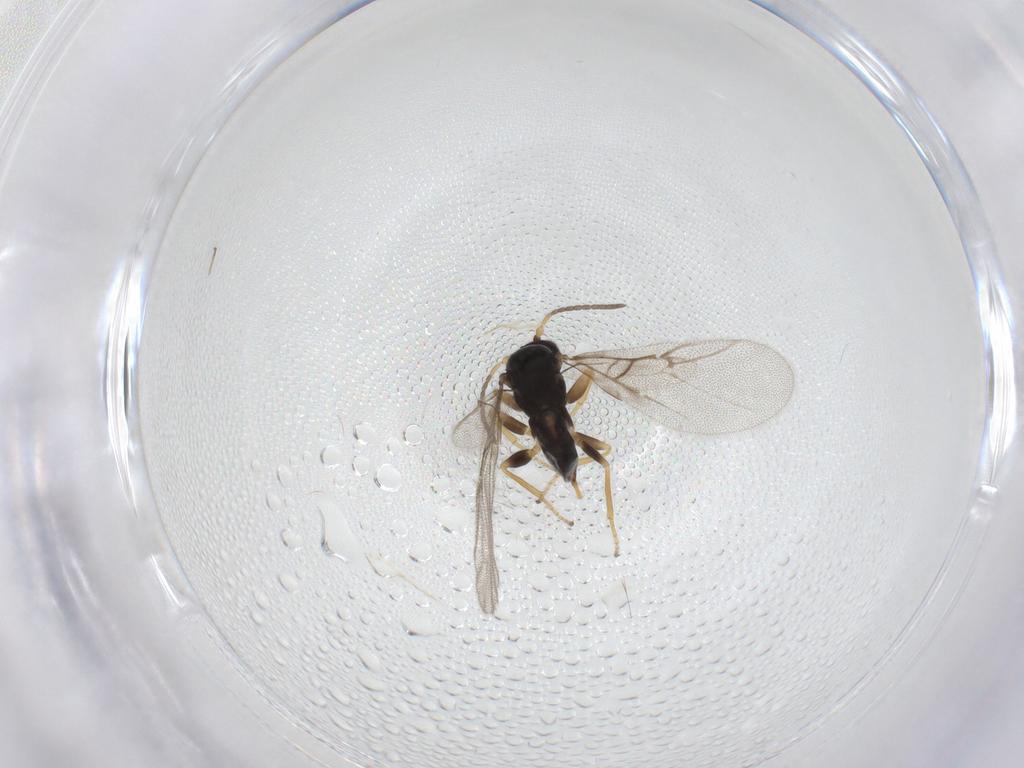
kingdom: Animalia
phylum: Arthropoda
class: Insecta
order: Hymenoptera
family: Cynipidae
